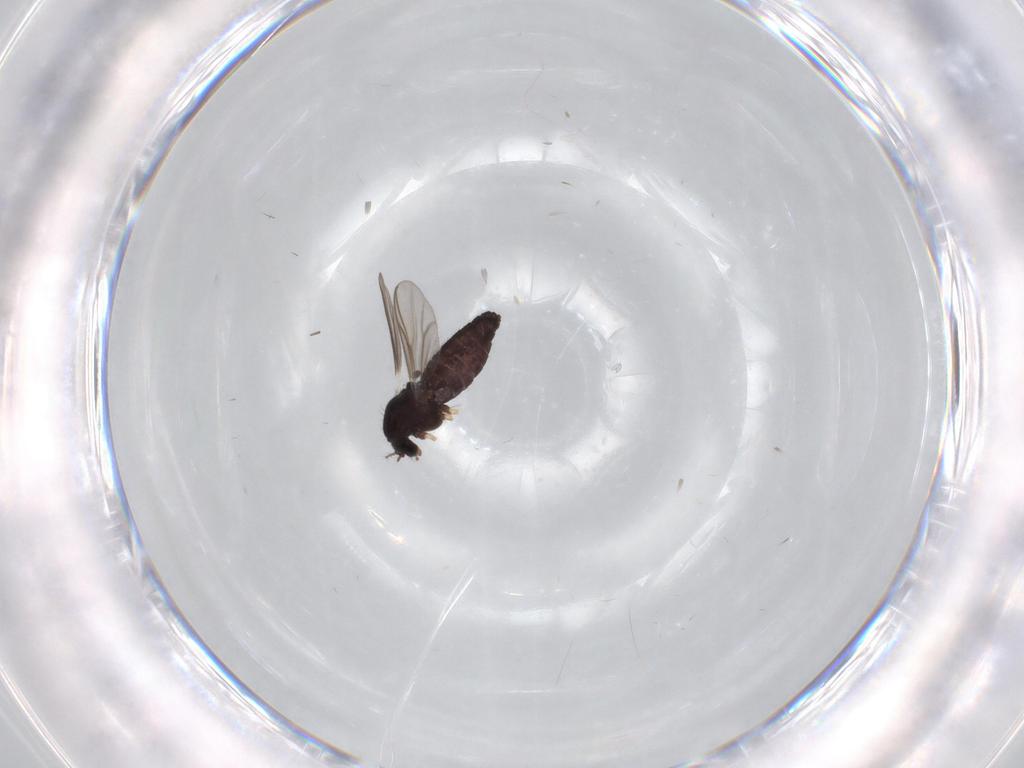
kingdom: Animalia
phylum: Arthropoda
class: Insecta
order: Diptera
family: Chironomidae
